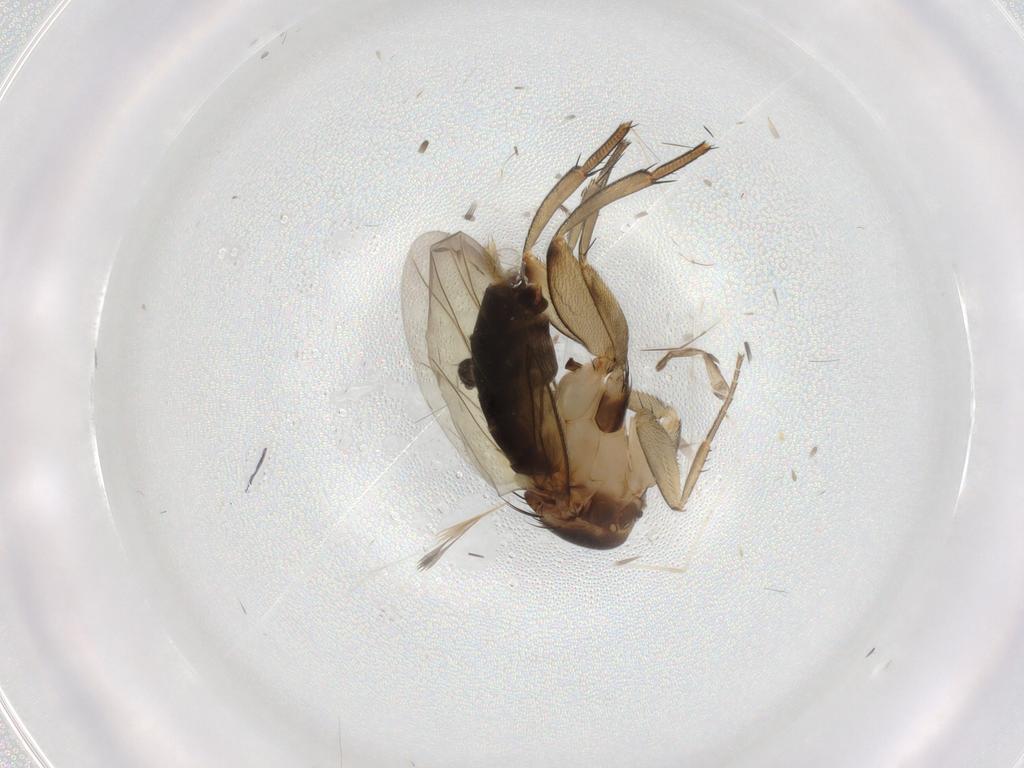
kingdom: Animalia
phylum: Arthropoda
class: Insecta
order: Diptera
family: Phoridae
